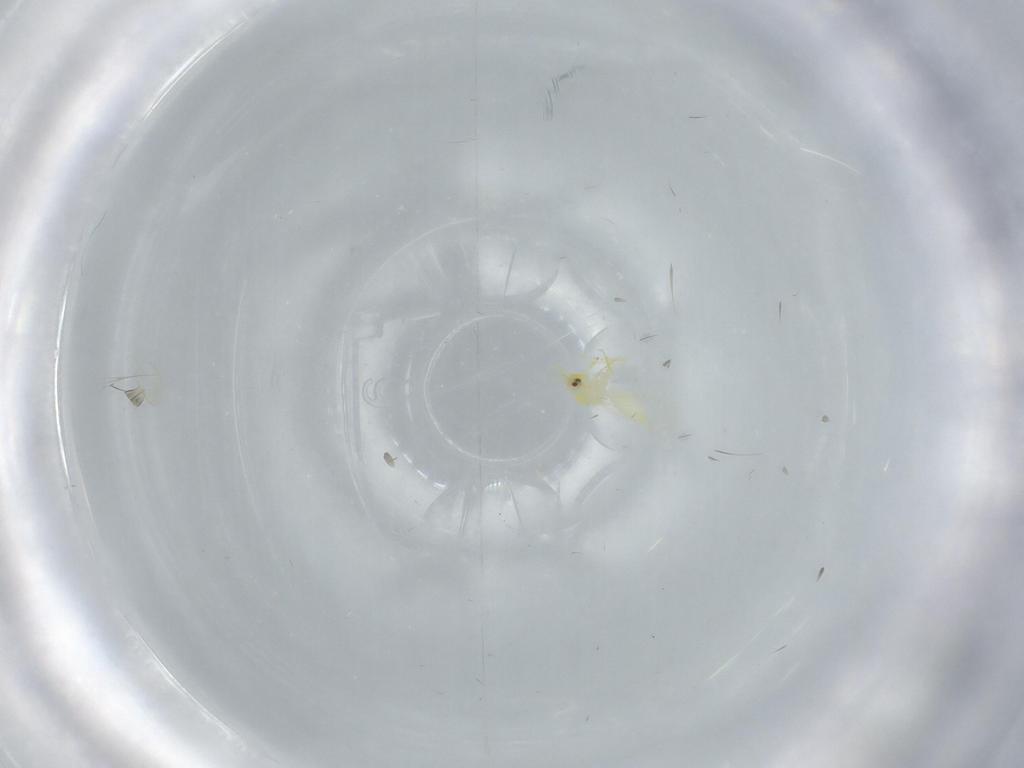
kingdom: Animalia
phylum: Arthropoda
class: Insecta
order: Hemiptera
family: Aleyrodidae
